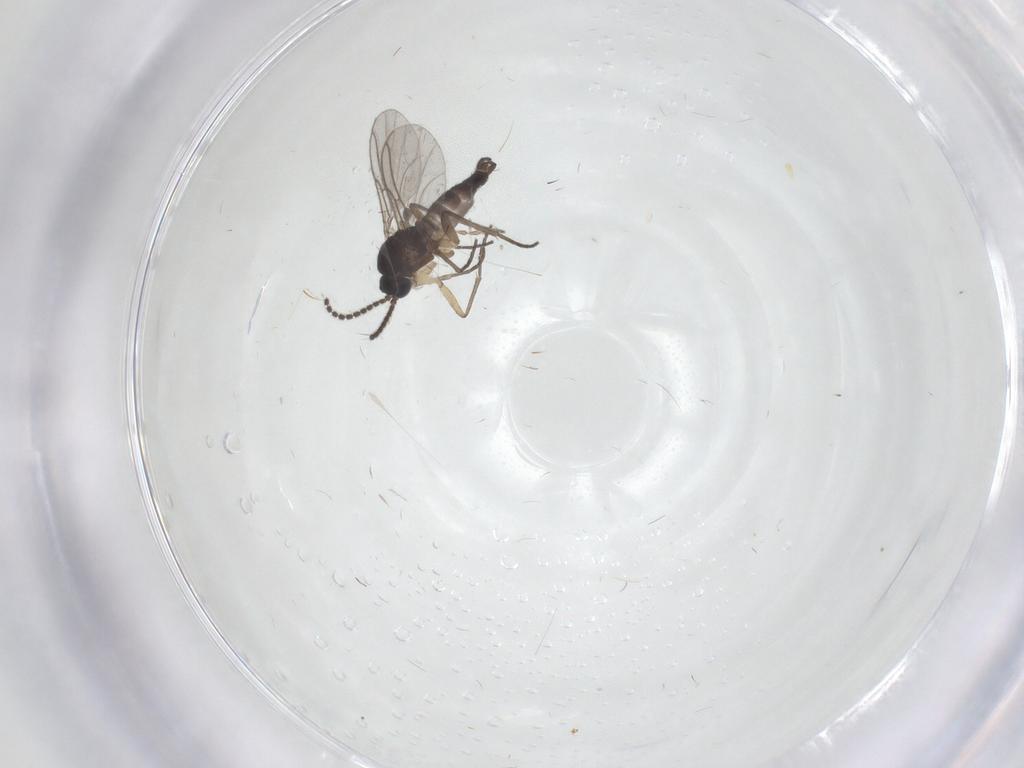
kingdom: Animalia
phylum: Arthropoda
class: Insecta
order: Diptera
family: Sciaridae
